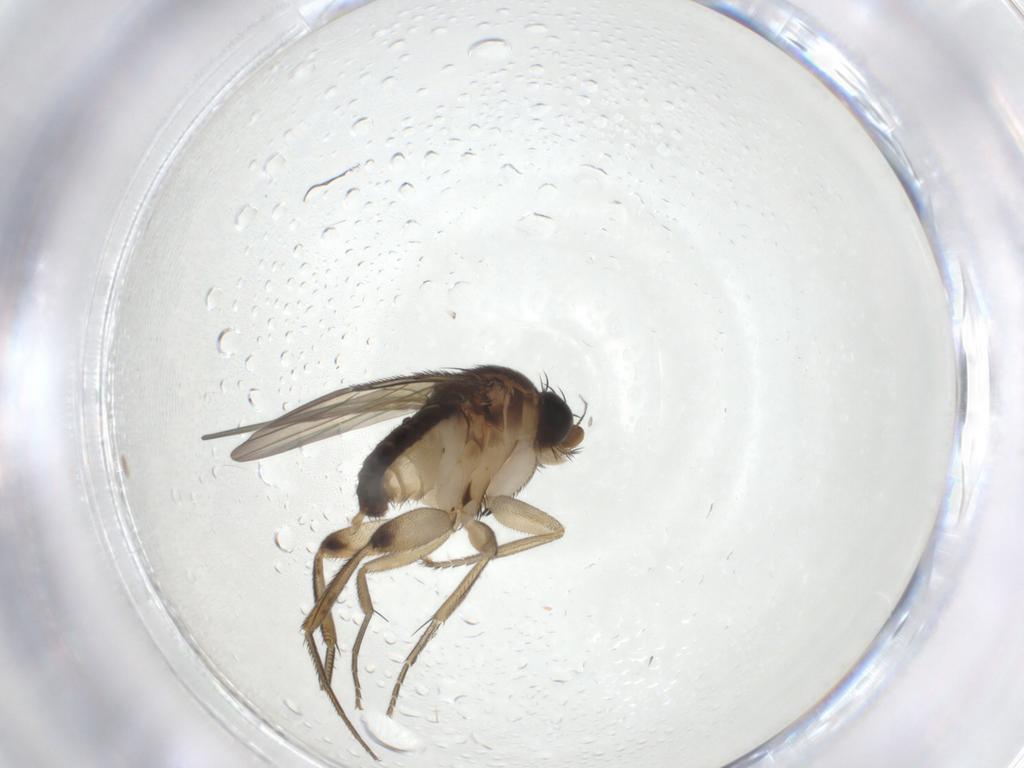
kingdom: Animalia
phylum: Arthropoda
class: Insecta
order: Diptera
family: Phoridae
